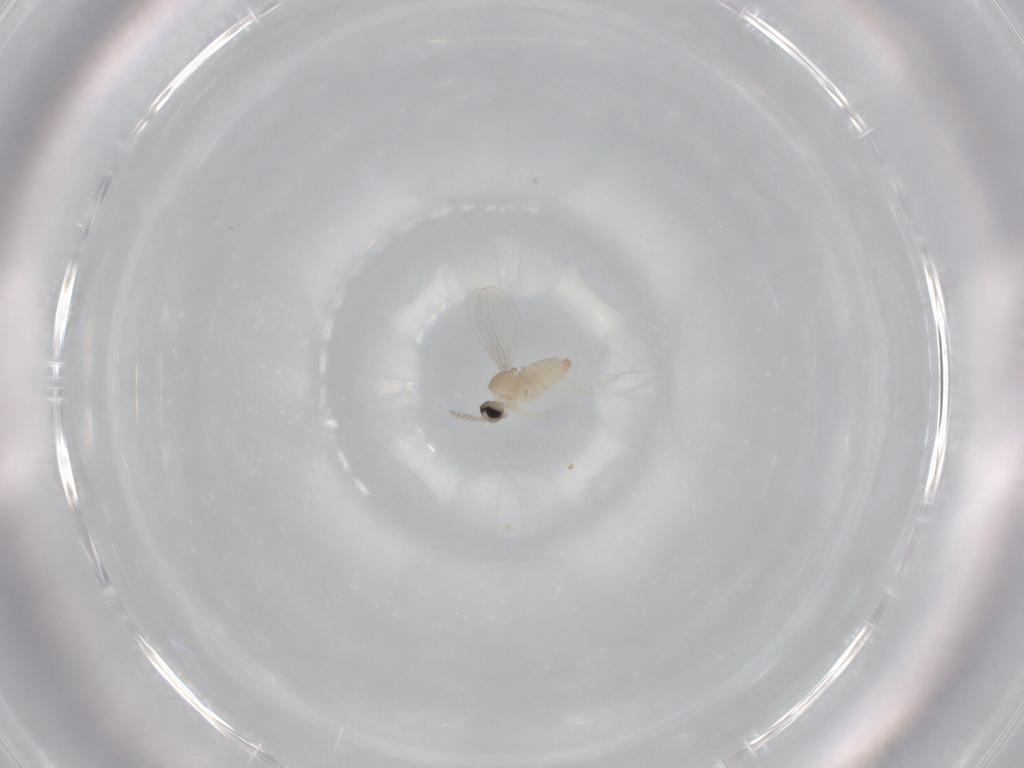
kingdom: Animalia
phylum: Arthropoda
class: Insecta
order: Diptera
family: Cecidomyiidae
